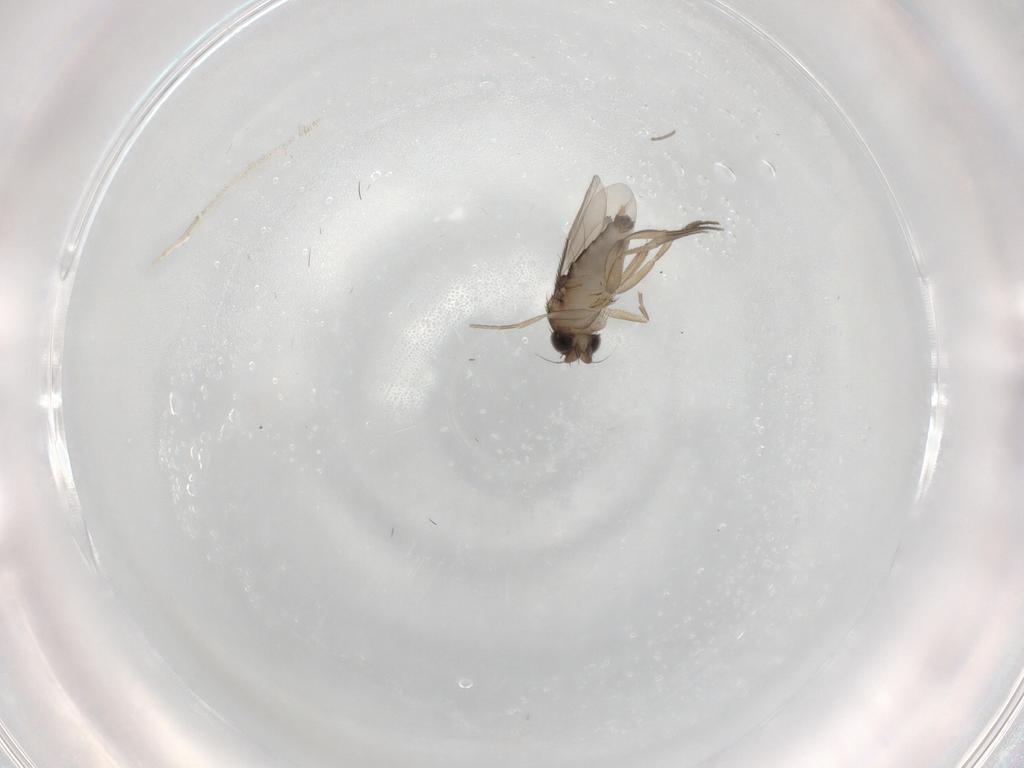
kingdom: Animalia
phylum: Arthropoda
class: Insecta
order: Diptera
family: Phoridae
